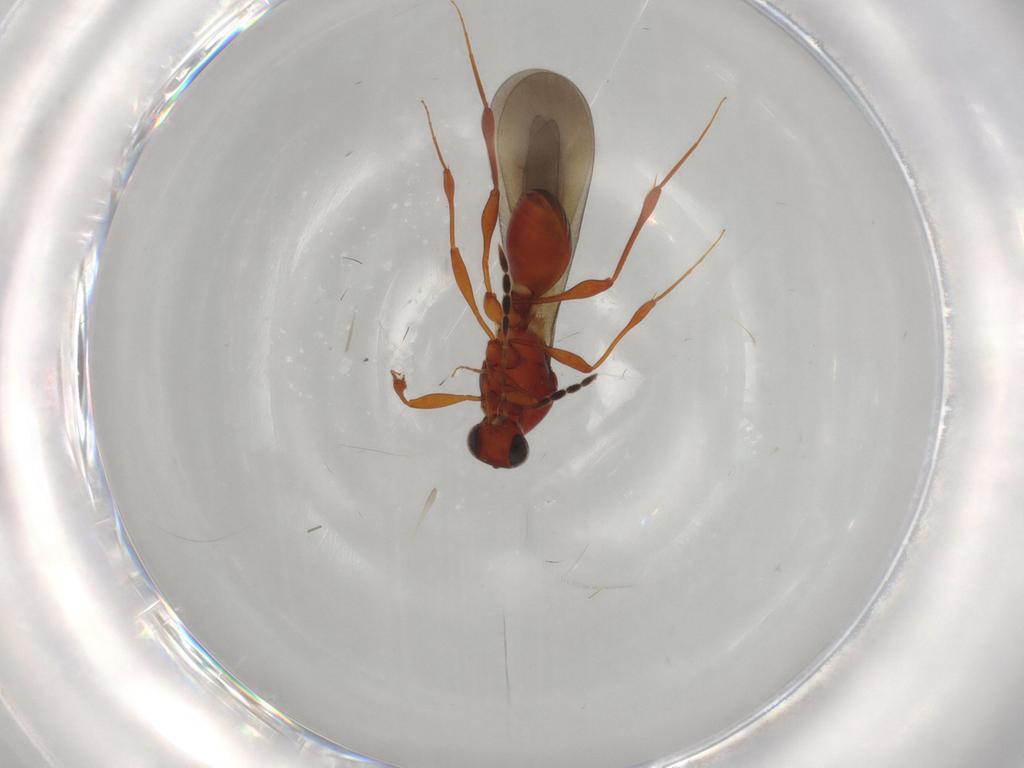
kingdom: Animalia
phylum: Arthropoda
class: Insecta
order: Hymenoptera
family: Platygastridae
